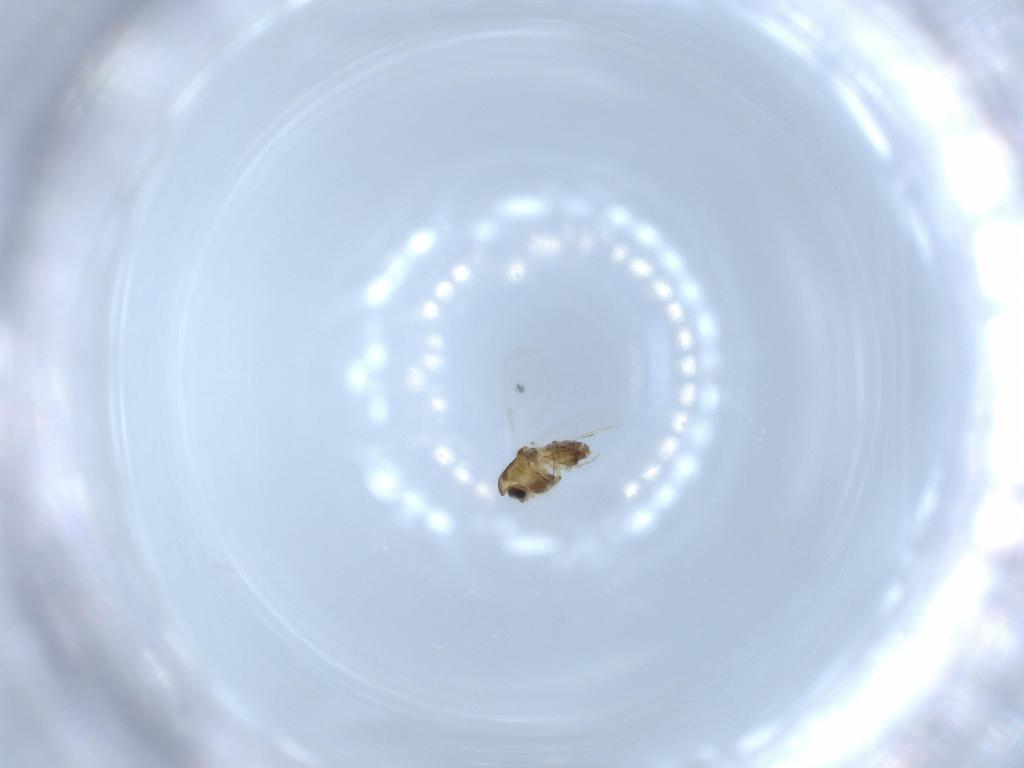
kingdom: Animalia
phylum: Arthropoda
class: Insecta
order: Diptera
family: Chironomidae
